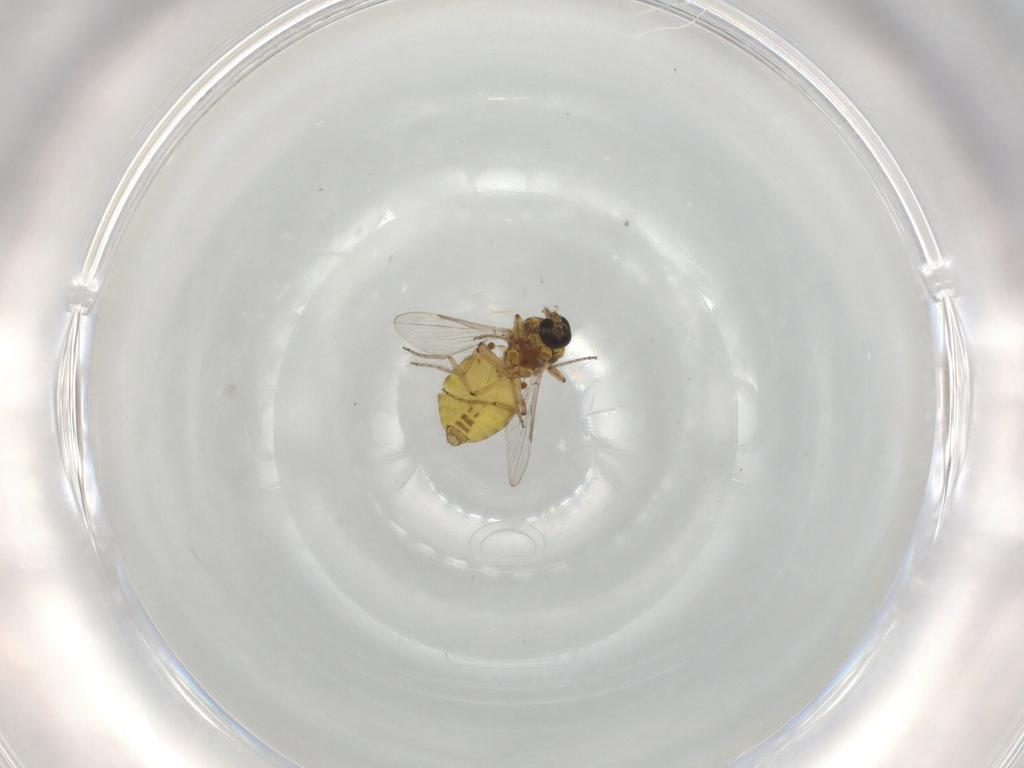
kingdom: Animalia
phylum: Arthropoda
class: Insecta
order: Diptera
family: Ceratopogonidae
